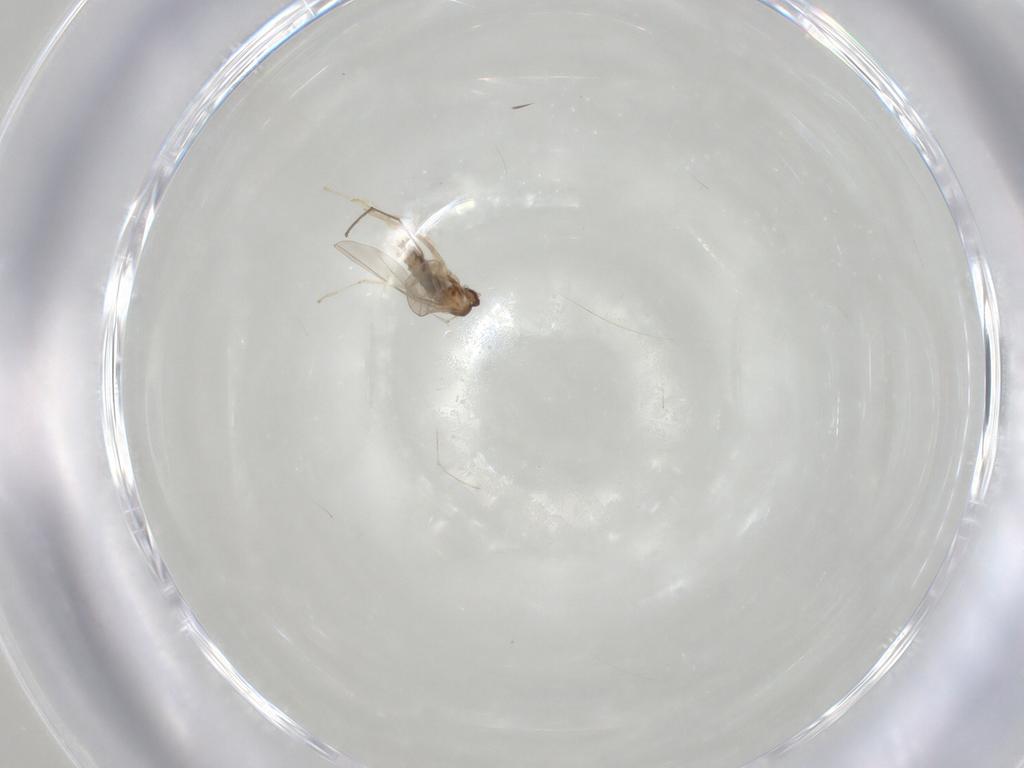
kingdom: Animalia
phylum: Arthropoda
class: Insecta
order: Diptera
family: Cecidomyiidae
